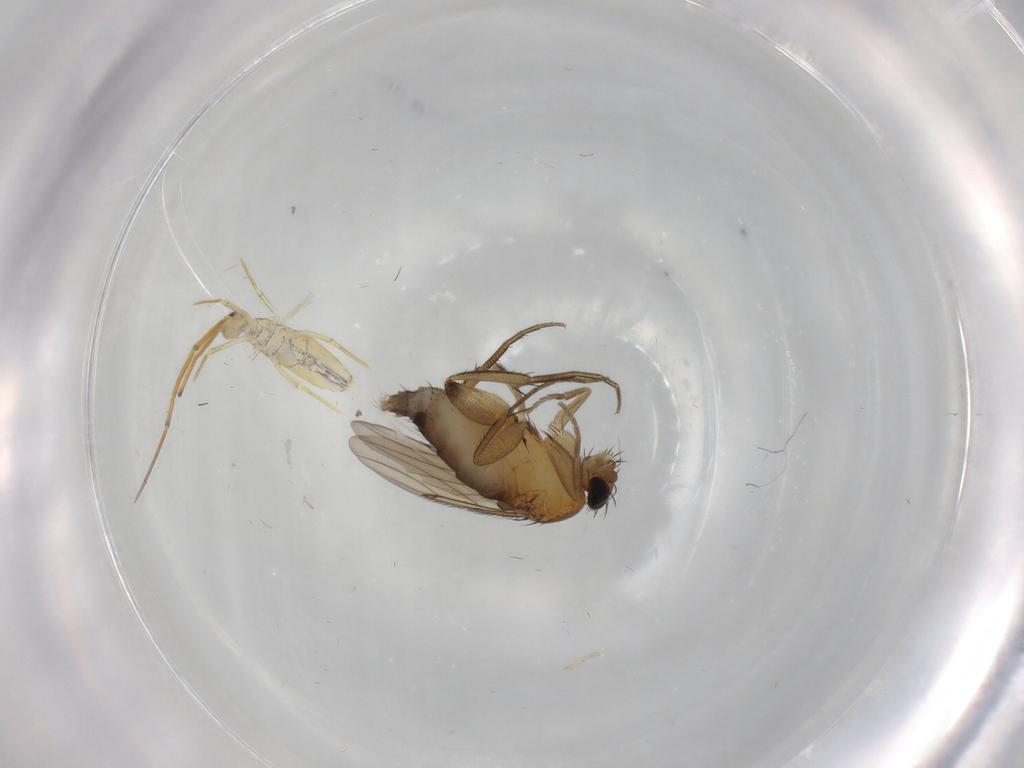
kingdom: Animalia
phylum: Arthropoda
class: Insecta
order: Diptera
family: Phoridae
